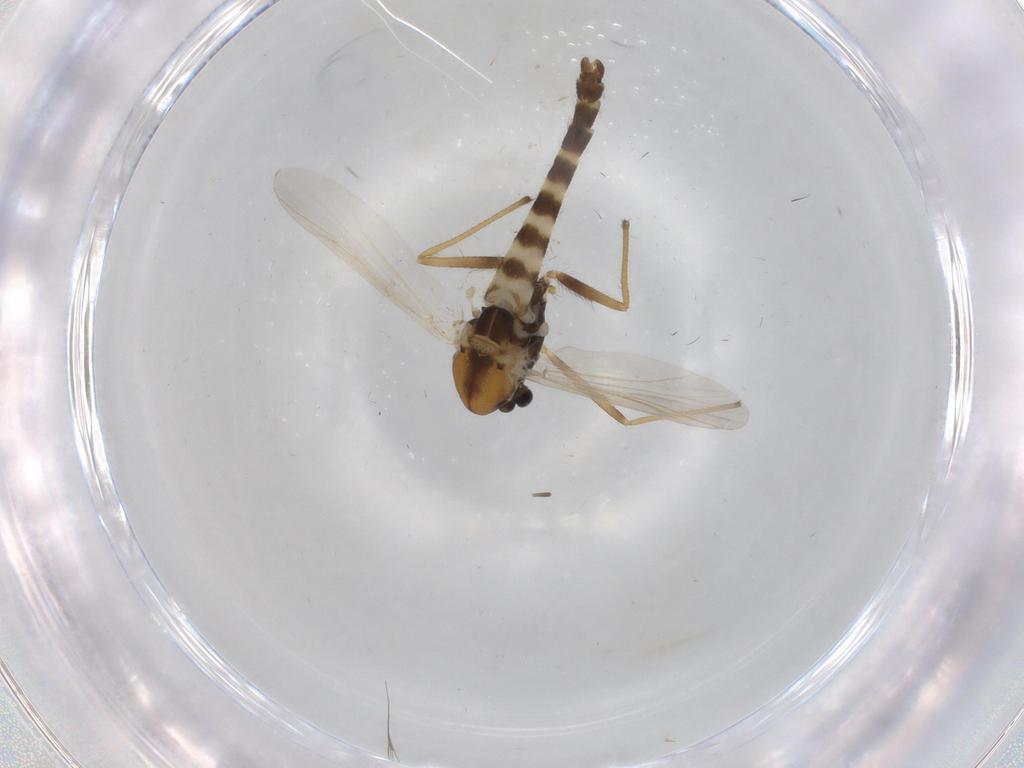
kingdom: Animalia
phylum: Arthropoda
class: Insecta
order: Diptera
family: Chironomidae
